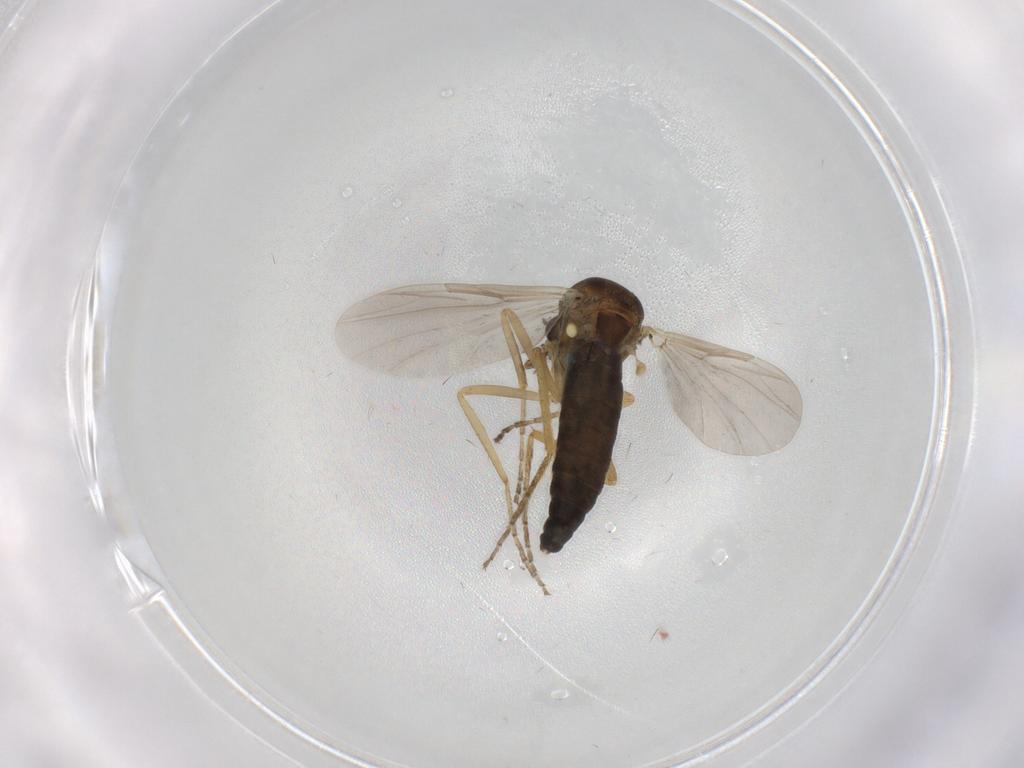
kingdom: Animalia
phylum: Arthropoda
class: Insecta
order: Diptera
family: Ceratopogonidae
